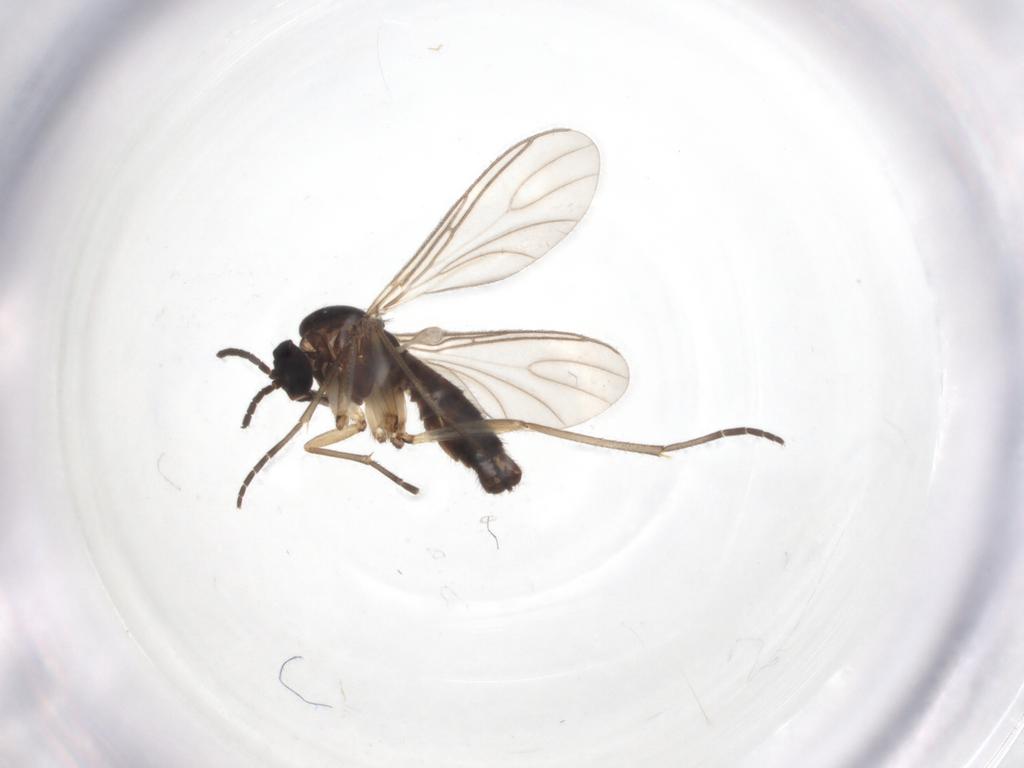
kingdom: Animalia
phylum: Arthropoda
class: Insecta
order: Diptera
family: Sciaridae
